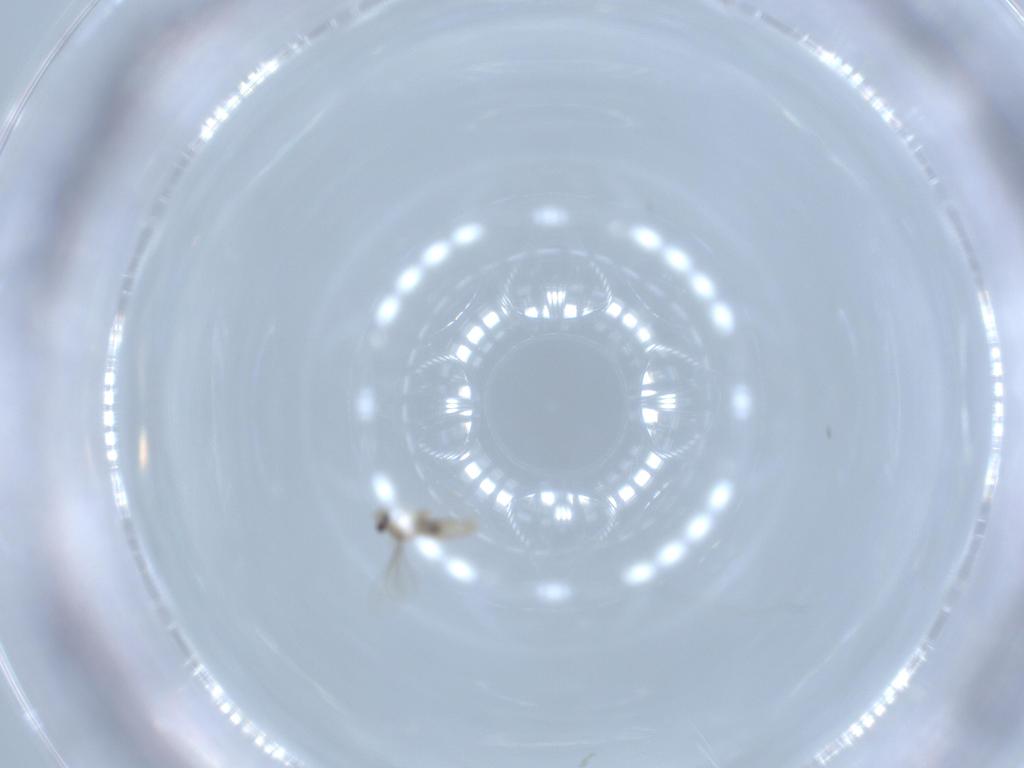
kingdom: Animalia
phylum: Arthropoda
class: Insecta
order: Diptera
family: Cecidomyiidae
